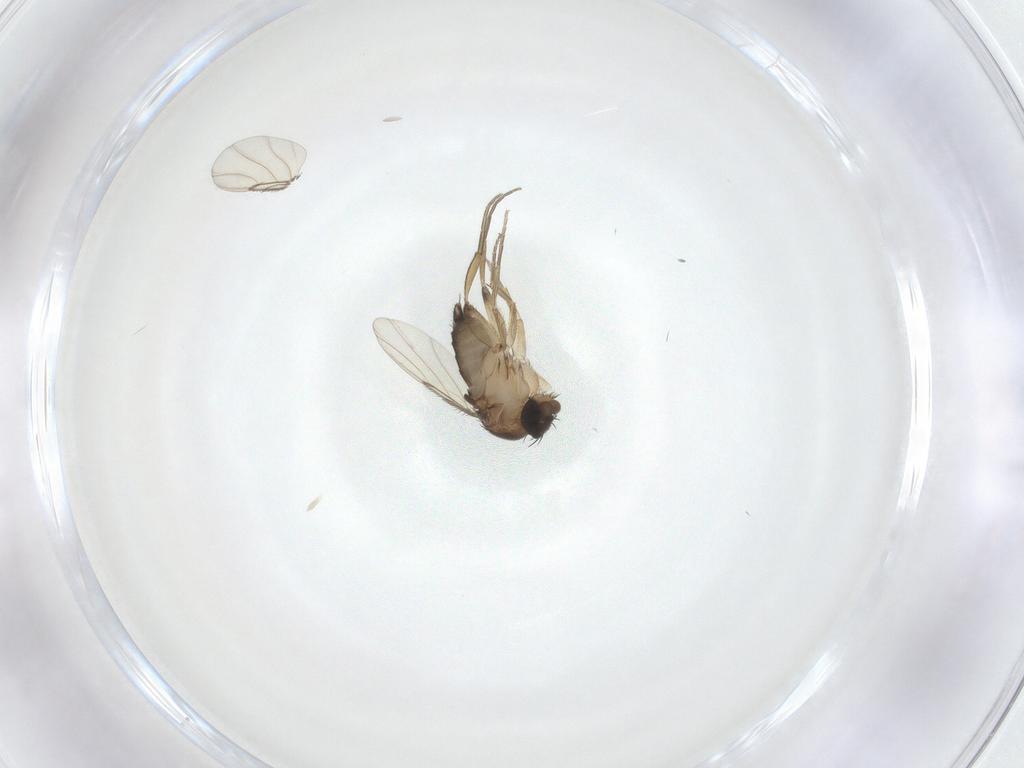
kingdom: Animalia
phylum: Arthropoda
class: Insecta
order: Diptera
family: Phoridae
